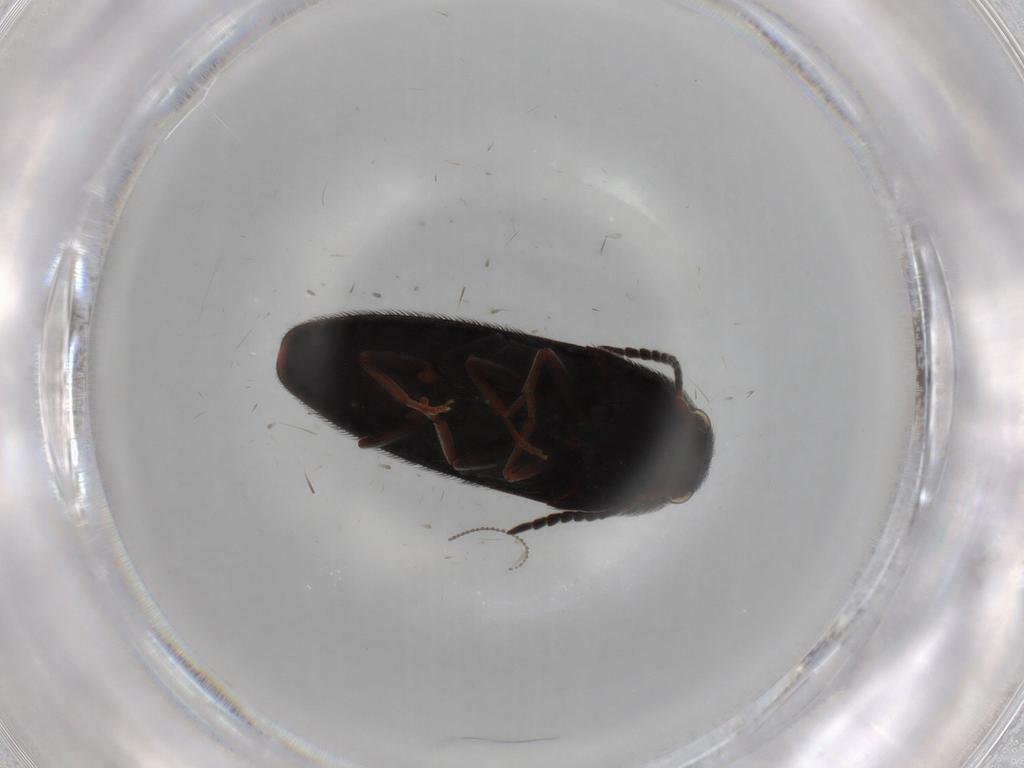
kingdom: Animalia
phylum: Arthropoda
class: Insecta
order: Coleoptera
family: Eucnemidae
